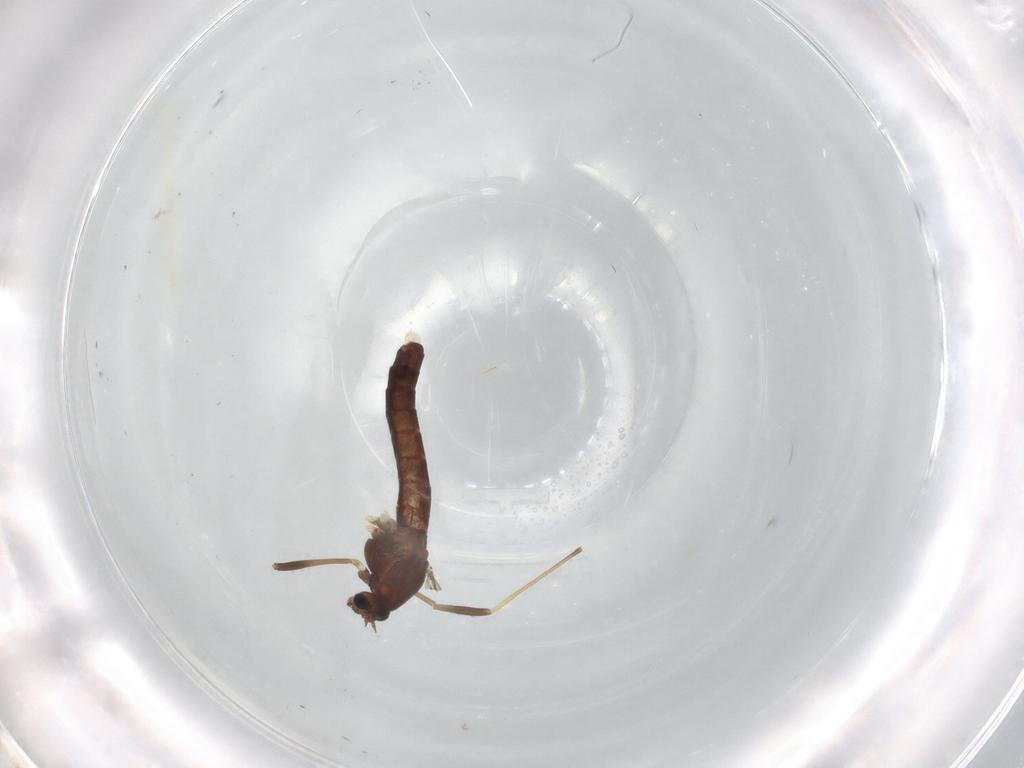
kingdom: Animalia
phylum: Arthropoda
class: Insecta
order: Diptera
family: Chironomidae
